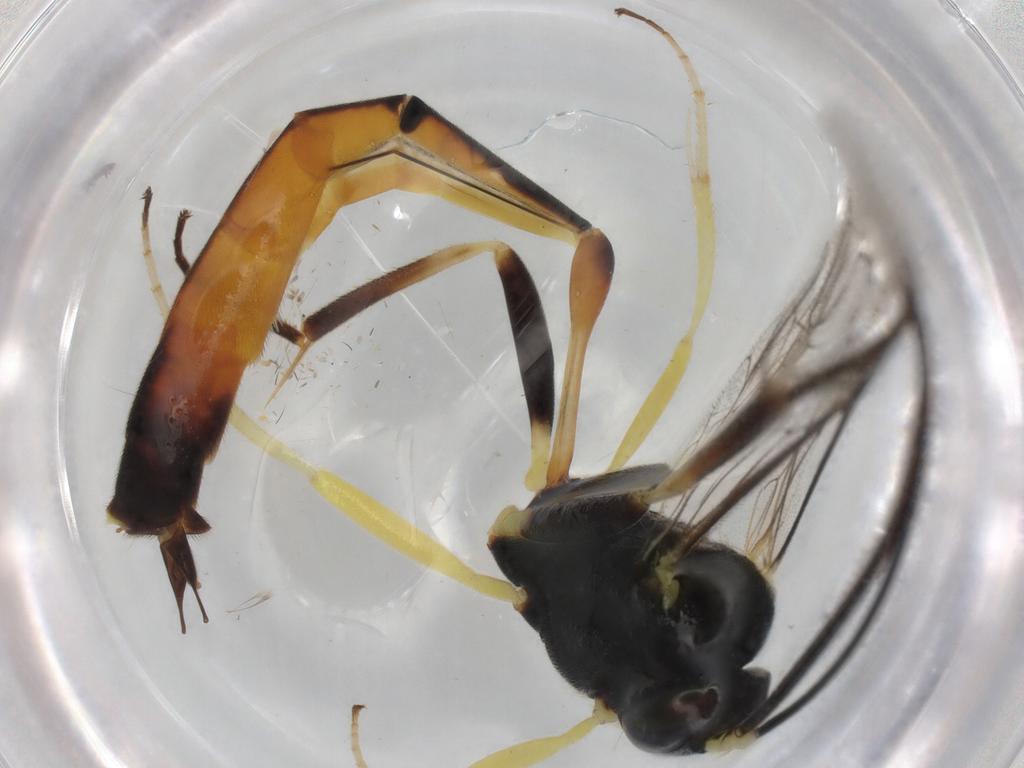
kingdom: Animalia
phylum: Arthropoda
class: Insecta
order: Hymenoptera
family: Ichneumonidae
